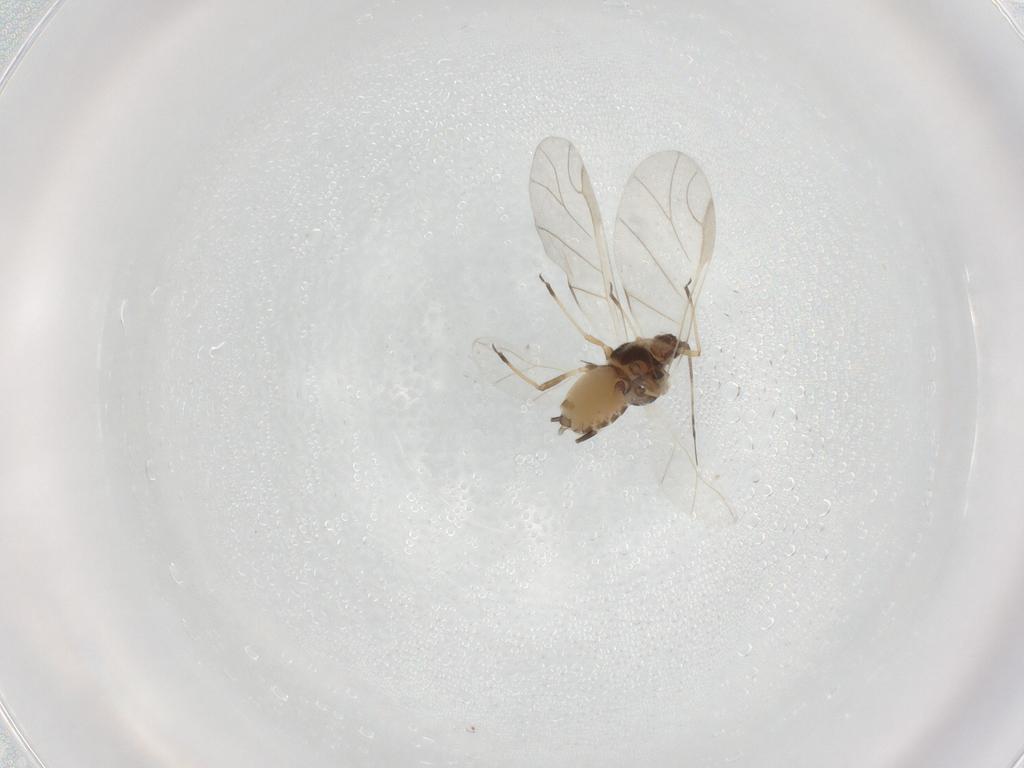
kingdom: Animalia
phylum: Arthropoda
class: Insecta
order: Hemiptera
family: Aphididae
